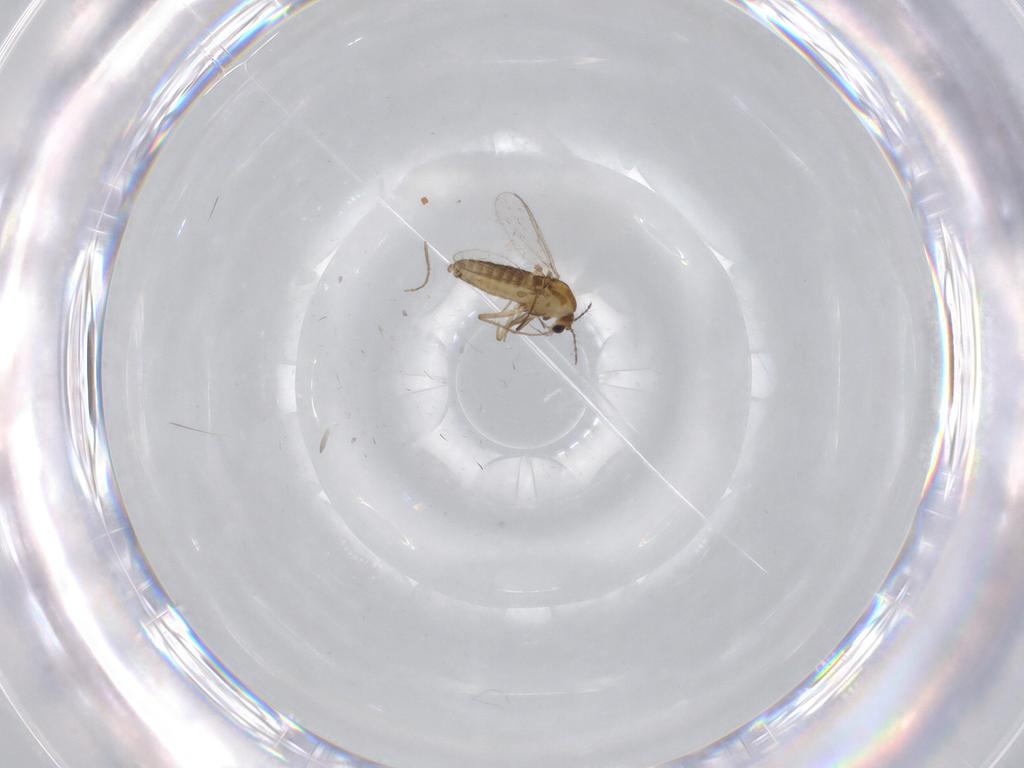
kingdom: Animalia
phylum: Arthropoda
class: Insecta
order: Diptera
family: Chironomidae
